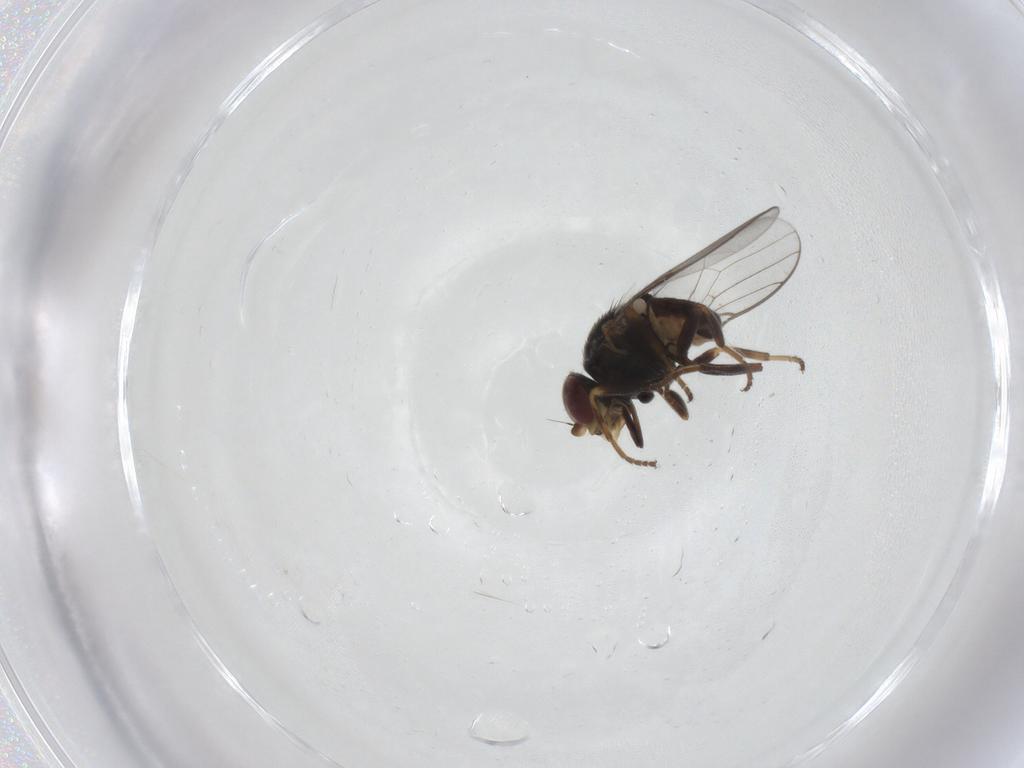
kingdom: Animalia
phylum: Arthropoda
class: Insecta
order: Diptera
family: Chloropidae
